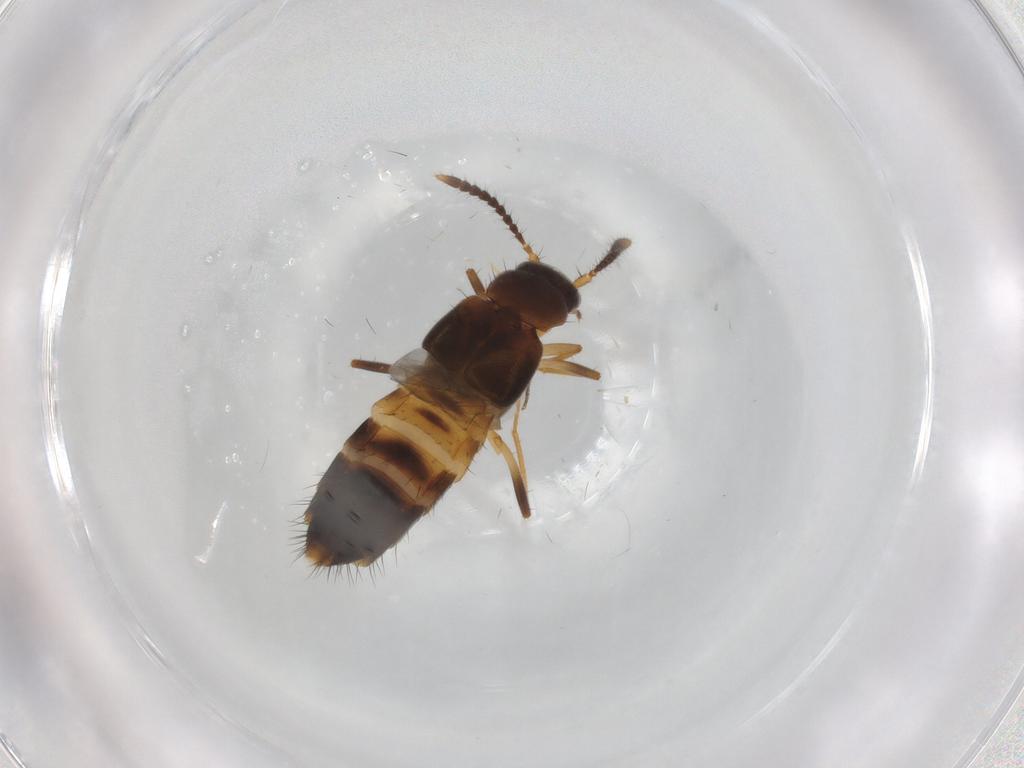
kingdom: Animalia
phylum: Arthropoda
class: Insecta
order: Coleoptera
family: Staphylinidae
